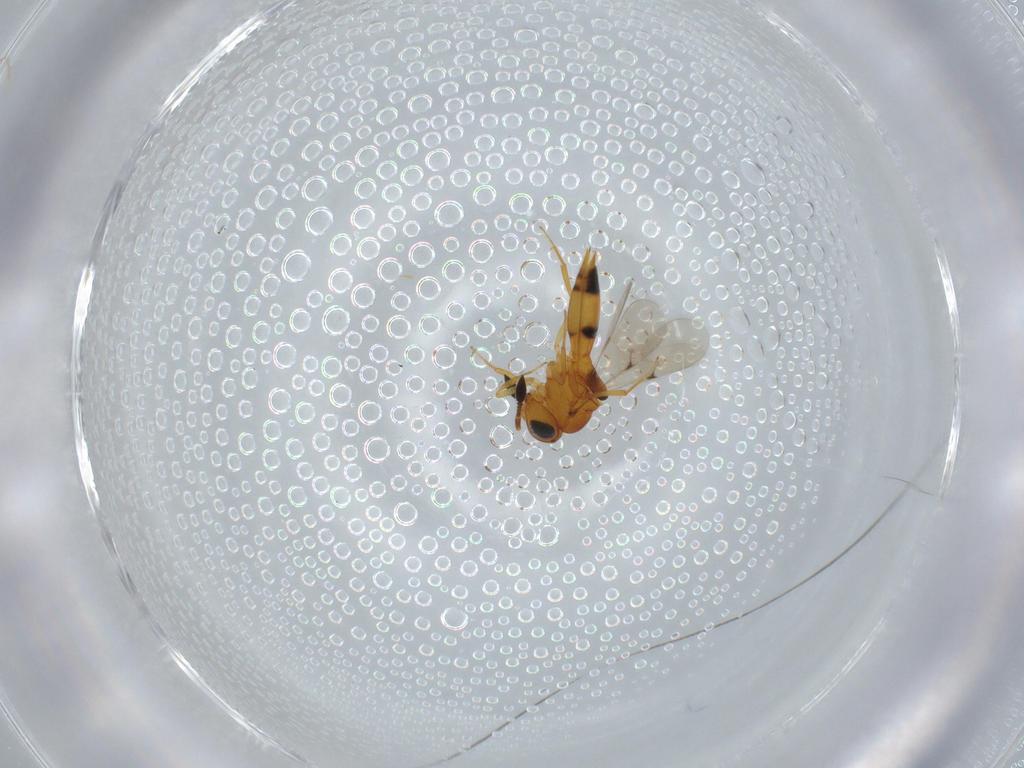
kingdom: Animalia
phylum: Arthropoda
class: Insecta
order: Hymenoptera
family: Scelionidae
